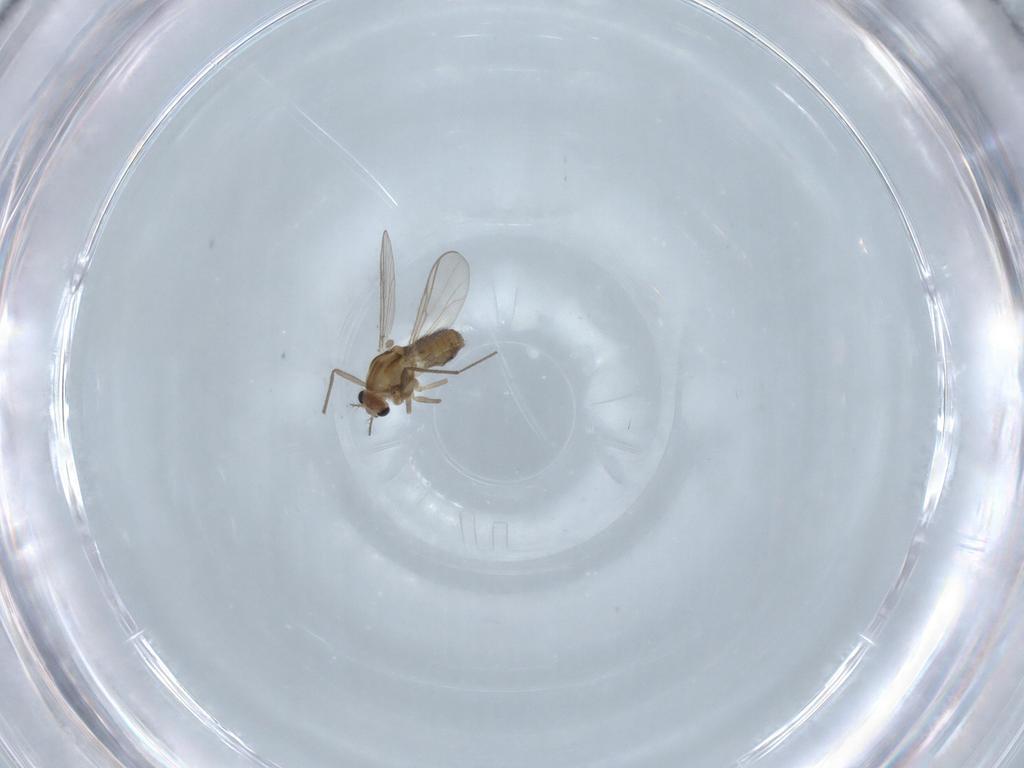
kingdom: Animalia
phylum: Arthropoda
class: Insecta
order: Diptera
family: Chironomidae
